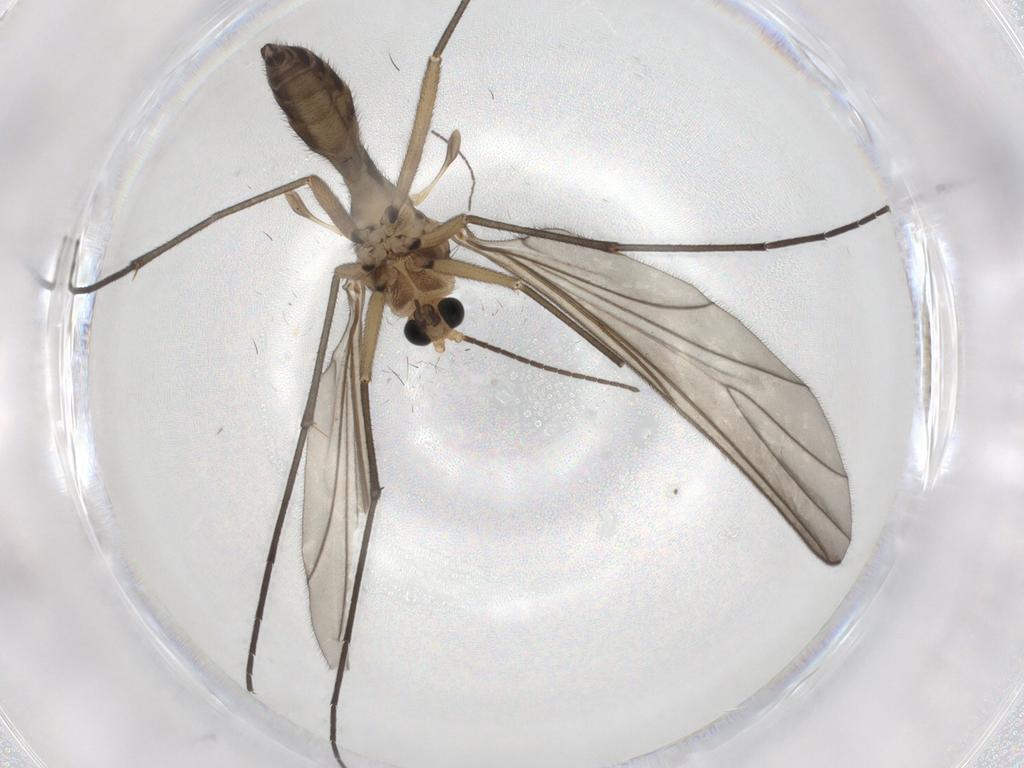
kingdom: Animalia
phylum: Arthropoda
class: Insecta
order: Diptera
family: Sciaridae
